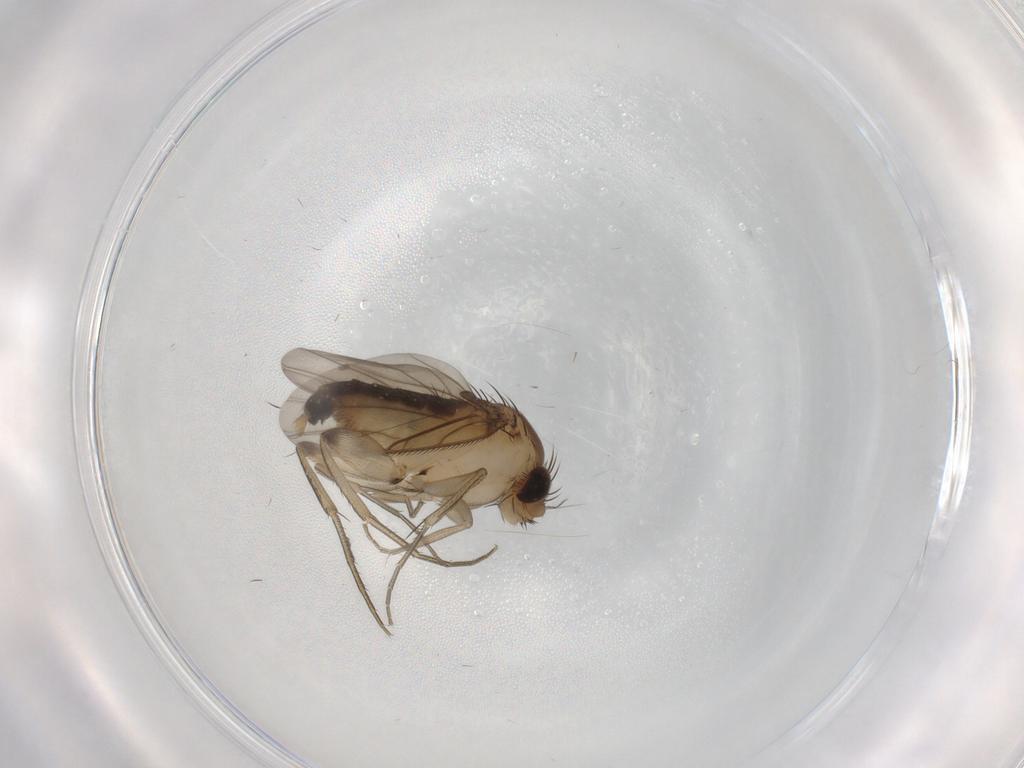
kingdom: Animalia
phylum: Arthropoda
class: Insecta
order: Diptera
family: Phoridae
